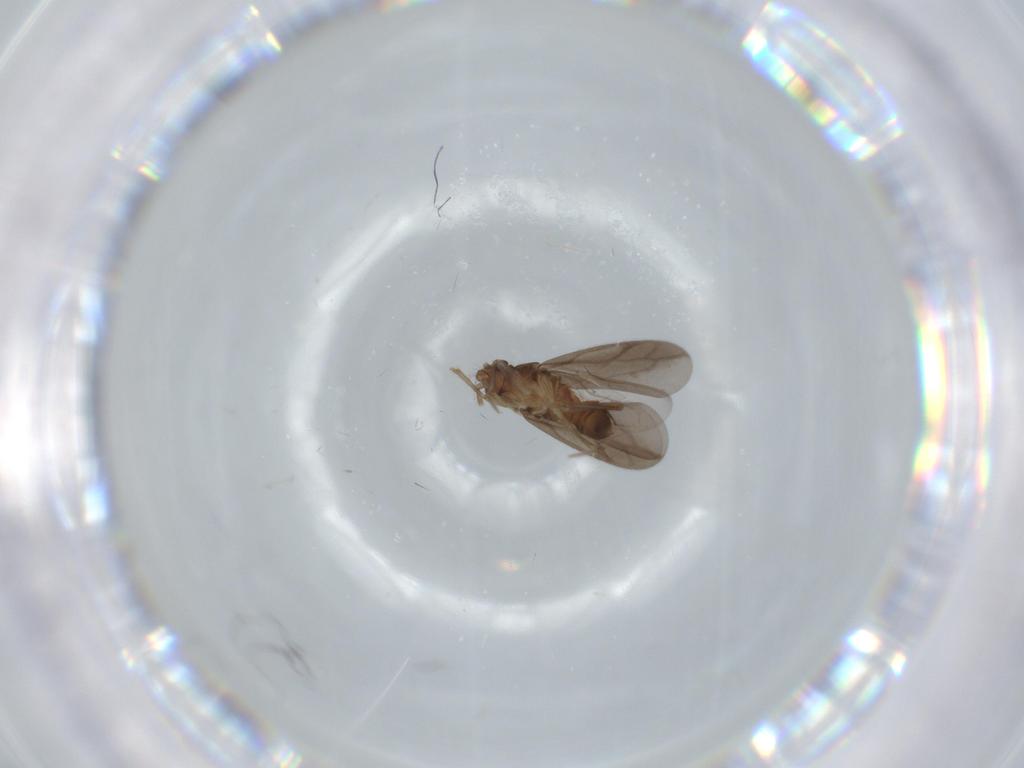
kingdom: Animalia
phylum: Arthropoda
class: Insecta
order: Hemiptera
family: Ceratocombidae
